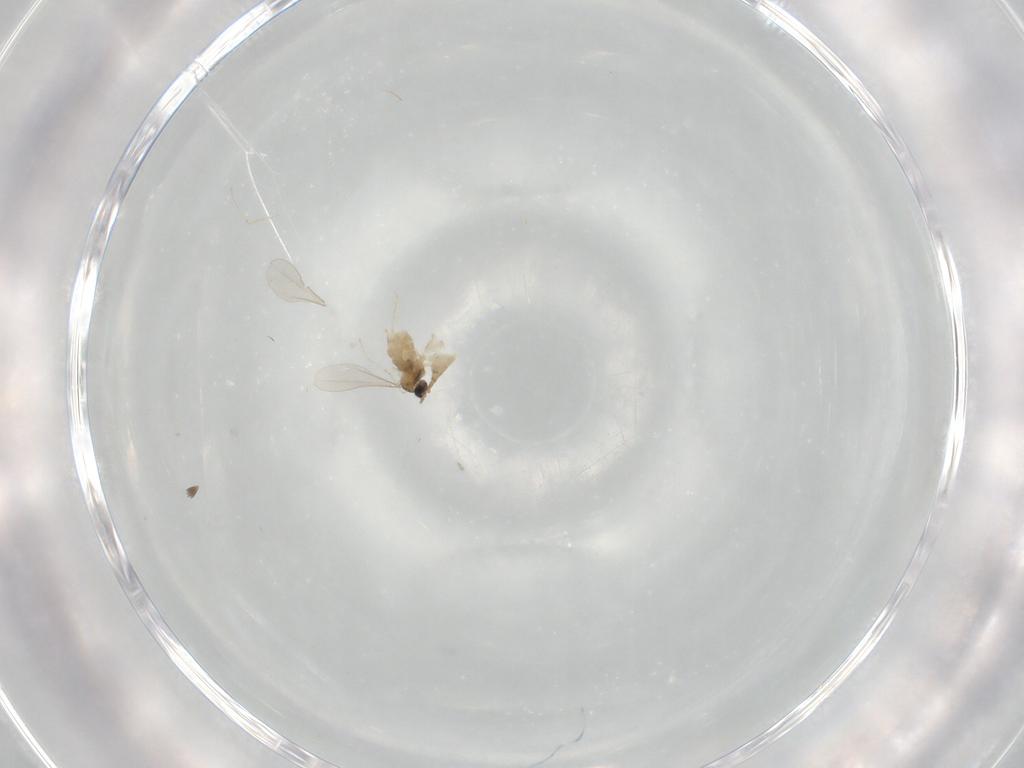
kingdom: Animalia
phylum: Arthropoda
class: Insecta
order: Diptera
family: Cecidomyiidae
